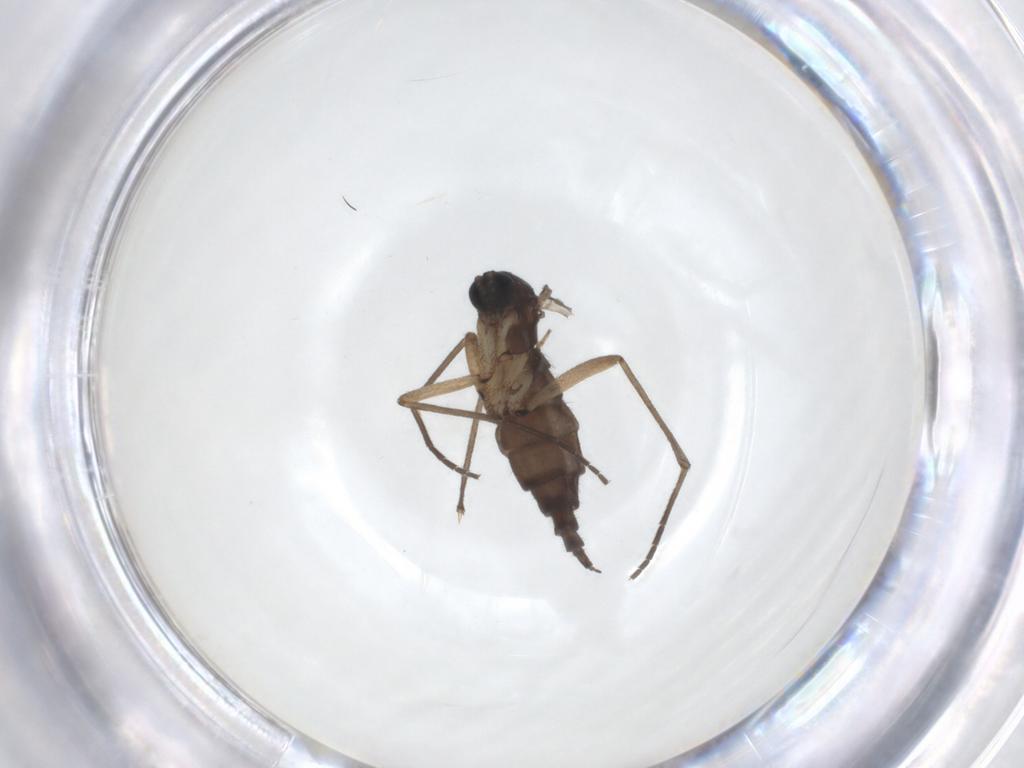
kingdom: Animalia
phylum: Arthropoda
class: Insecta
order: Diptera
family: Sciaridae
